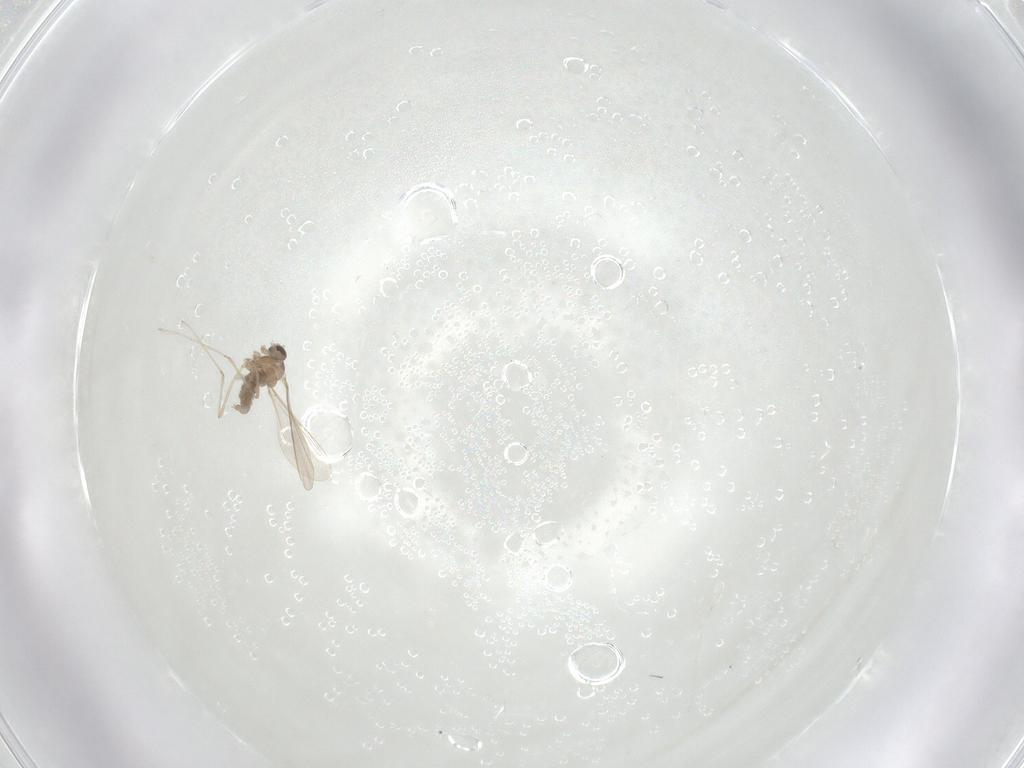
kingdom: Animalia
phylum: Arthropoda
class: Insecta
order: Diptera
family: Cecidomyiidae
